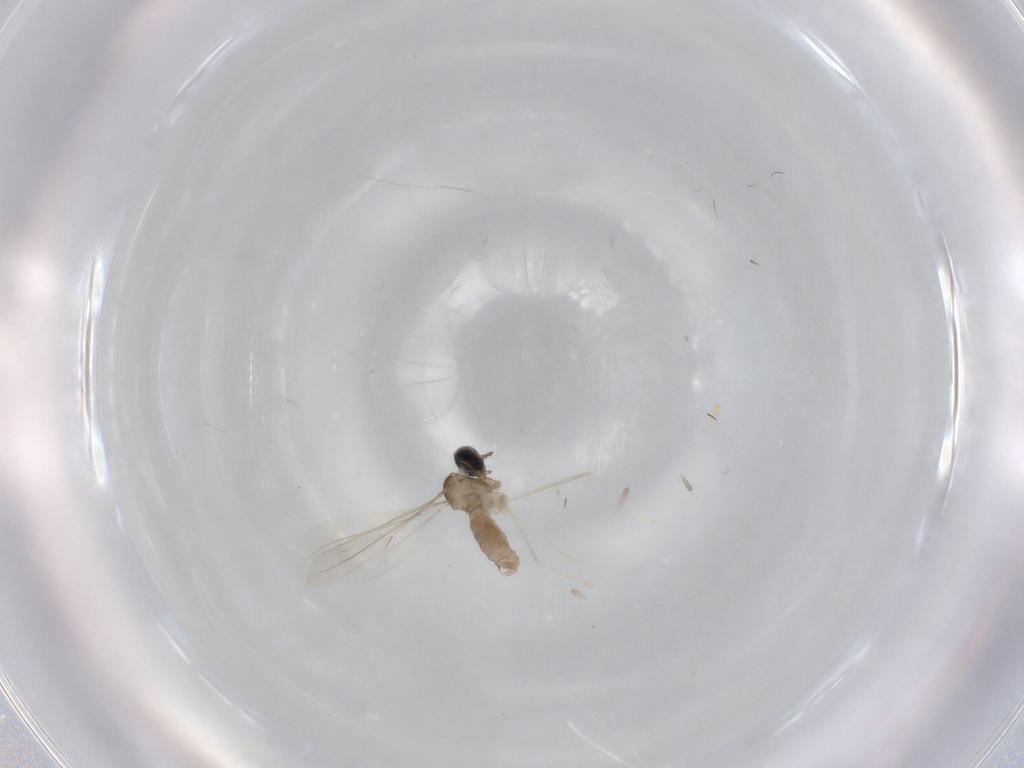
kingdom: Animalia
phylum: Arthropoda
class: Insecta
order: Diptera
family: Cecidomyiidae
